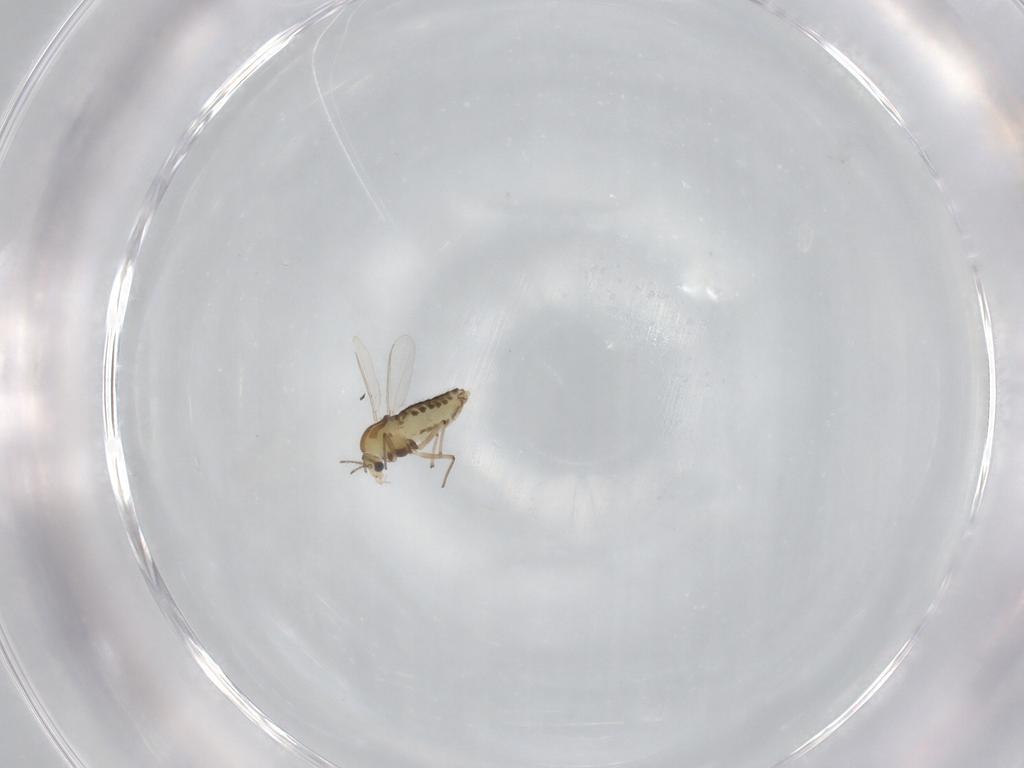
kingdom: Animalia
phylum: Arthropoda
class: Insecta
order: Diptera
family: Chironomidae
